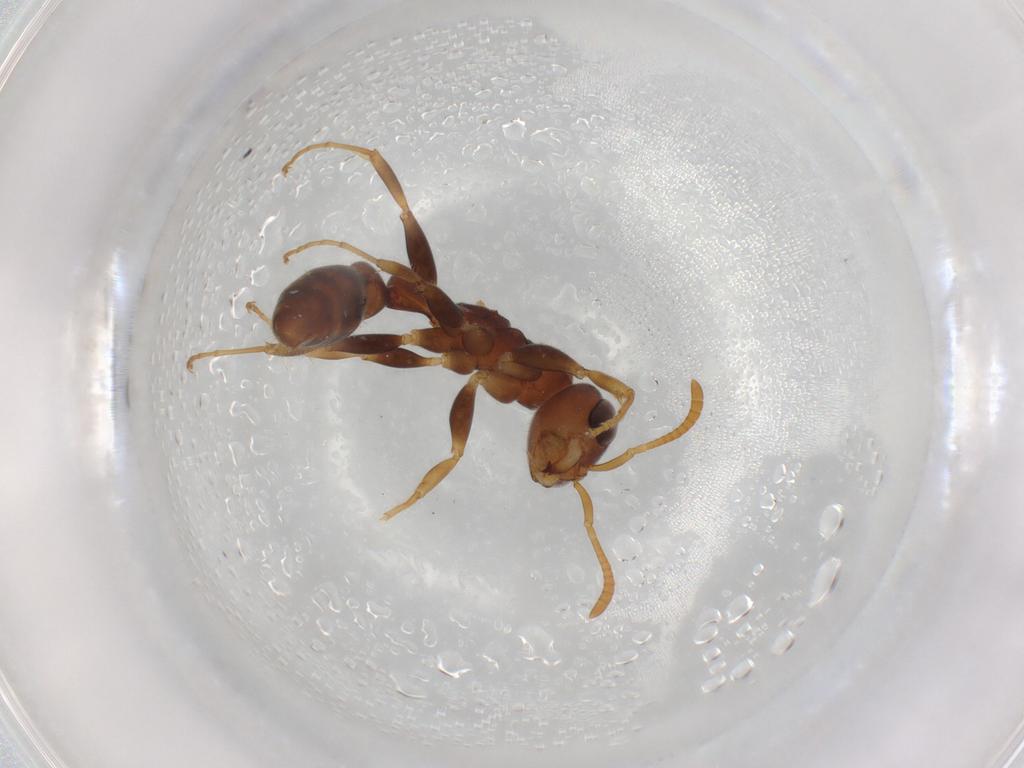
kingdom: Animalia
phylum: Arthropoda
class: Insecta
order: Hymenoptera
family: Formicidae
